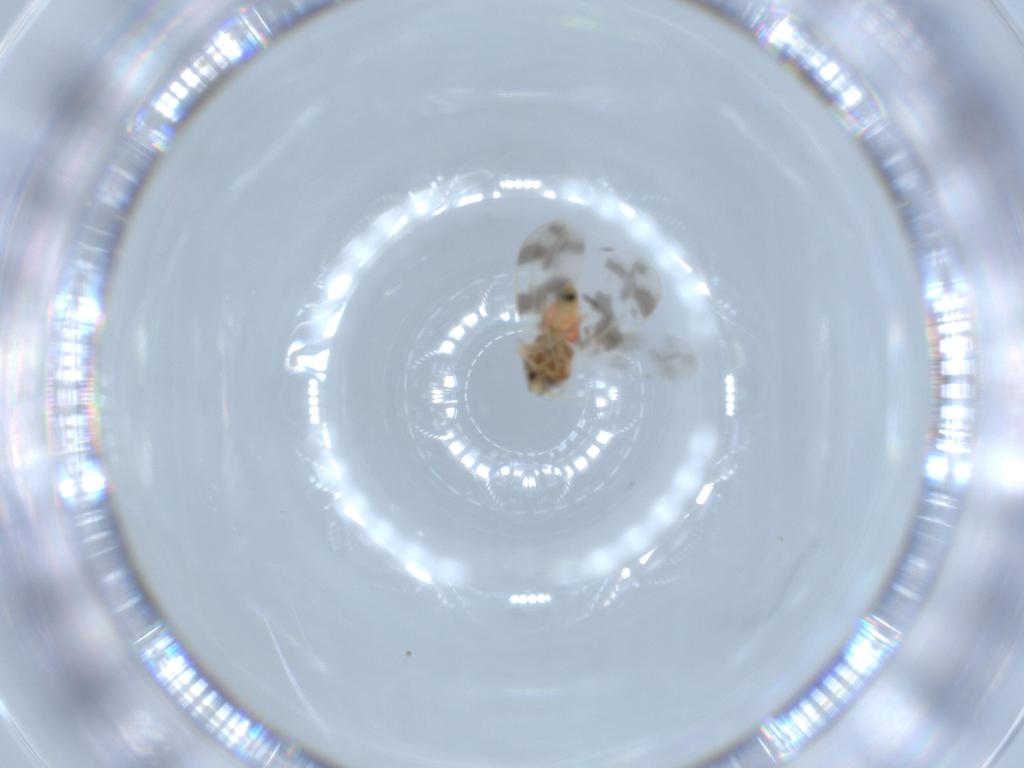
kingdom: Animalia
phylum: Arthropoda
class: Insecta
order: Hemiptera
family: Aleyrodidae
